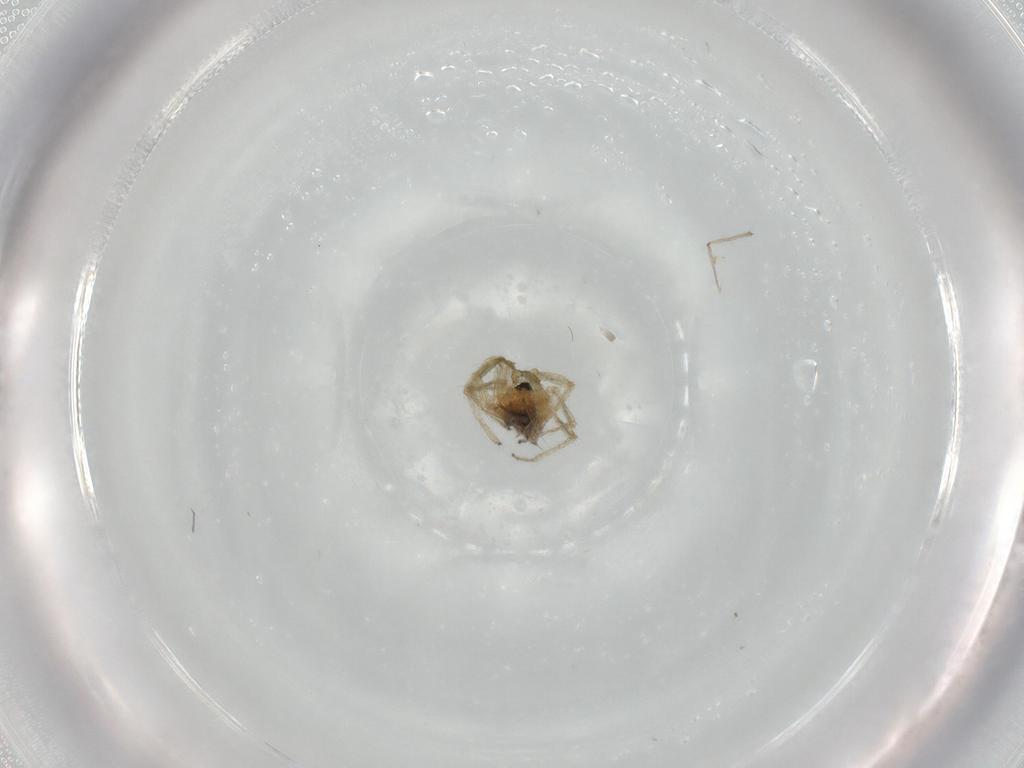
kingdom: Animalia
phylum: Arthropoda
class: Arachnida
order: Araneae
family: Linyphiidae
